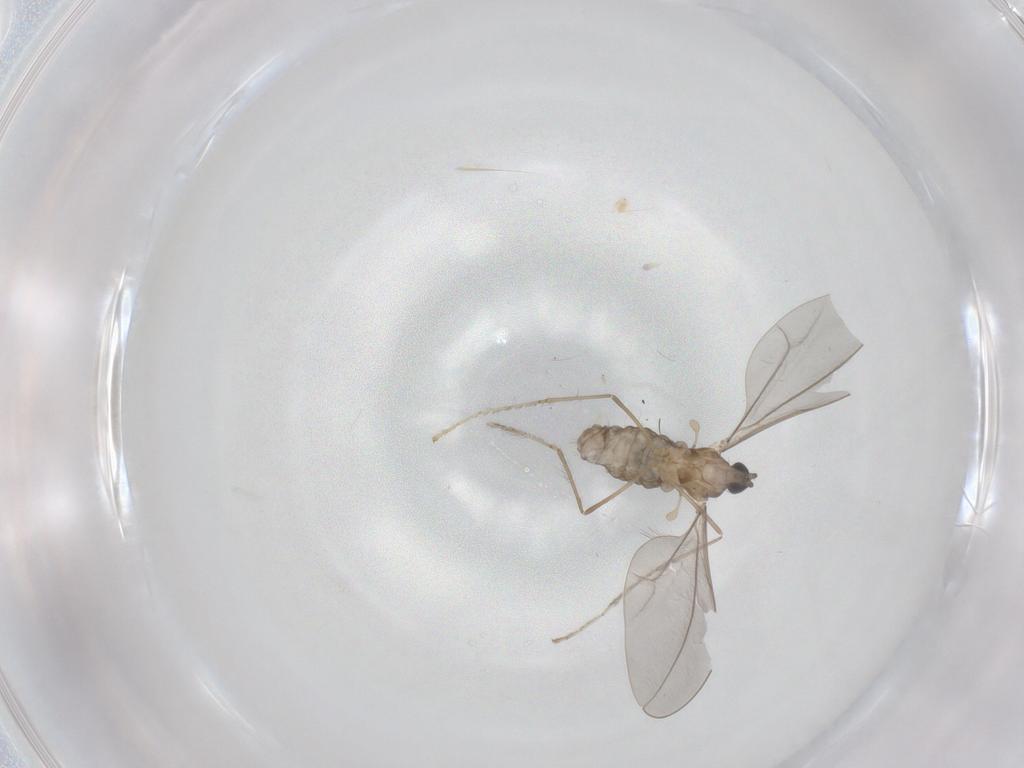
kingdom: Animalia
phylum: Arthropoda
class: Insecta
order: Diptera
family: Cecidomyiidae
